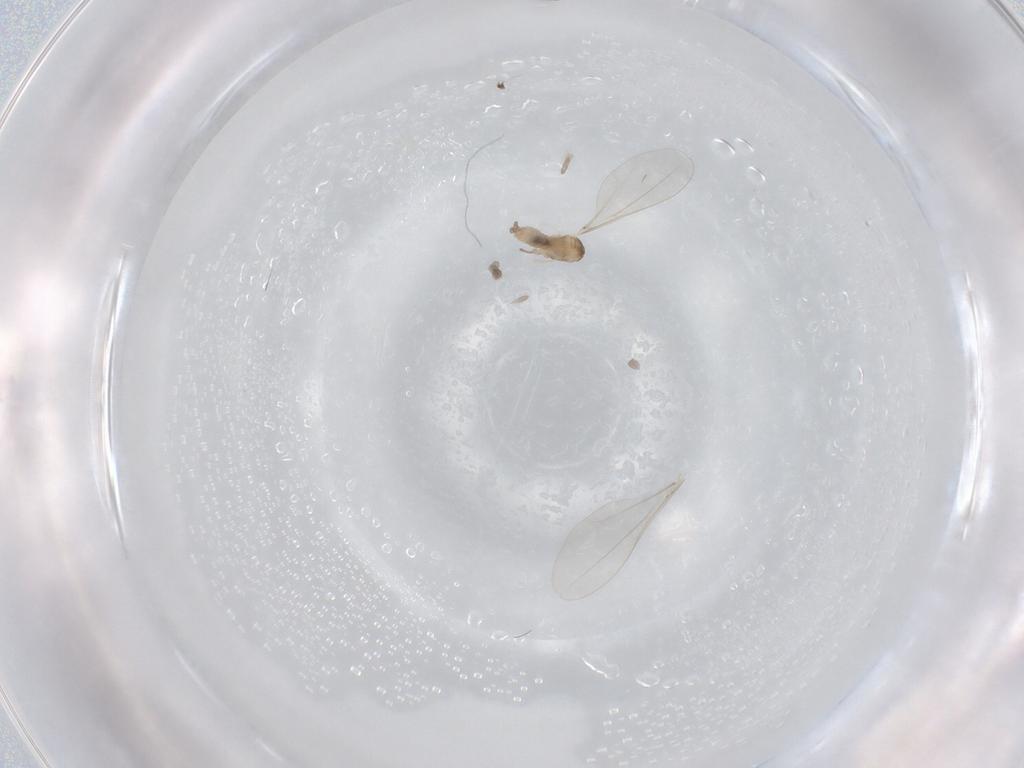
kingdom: Animalia
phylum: Arthropoda
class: Insecta
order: Diptera
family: Cecidomyiidae
